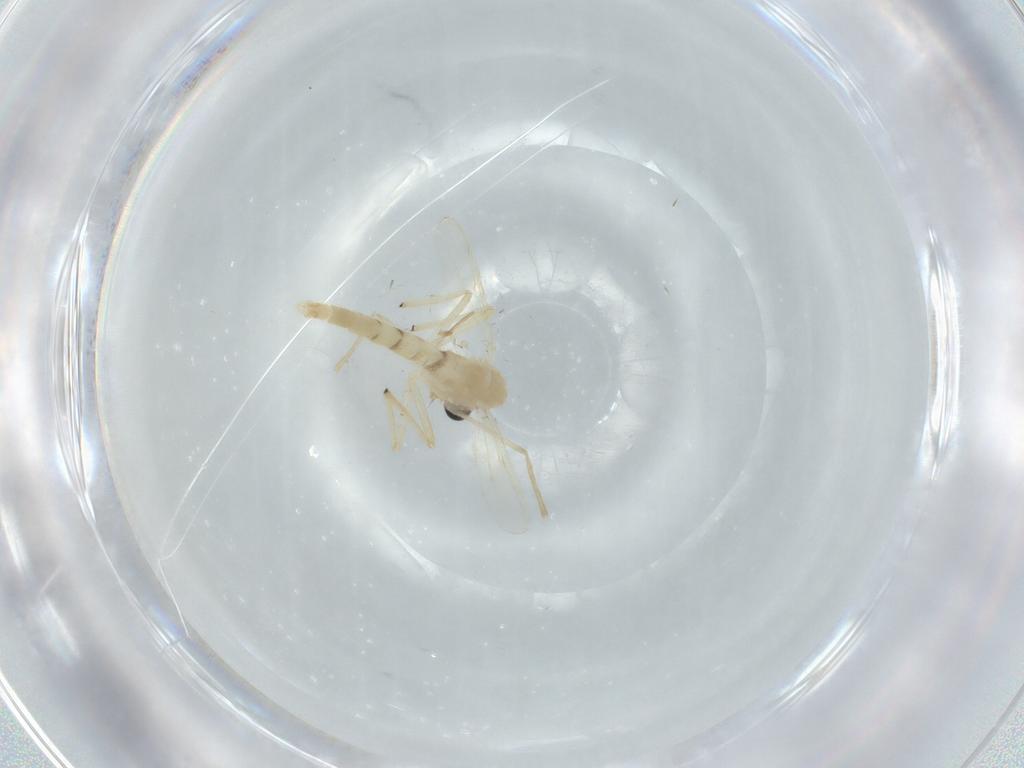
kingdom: Animalia
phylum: Arthropoda
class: Insecta
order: Diptera
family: Chironomidae
